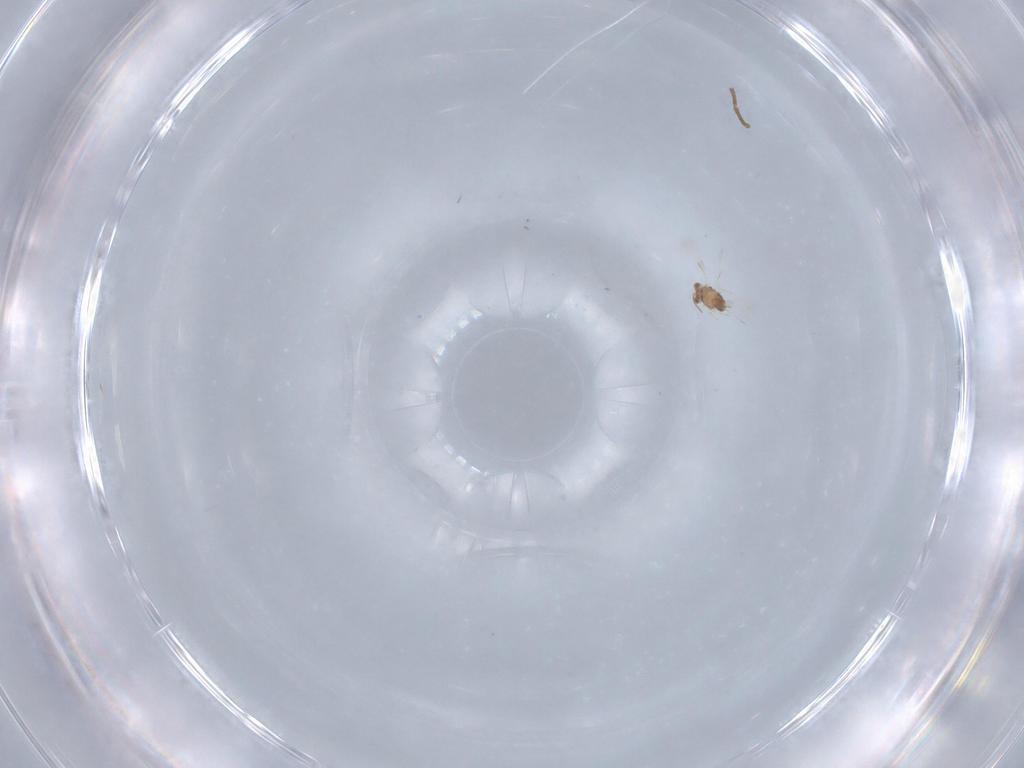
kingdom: Animalia
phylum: Arthropoda
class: Insecta
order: Hymenoptera
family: Platygastridae
